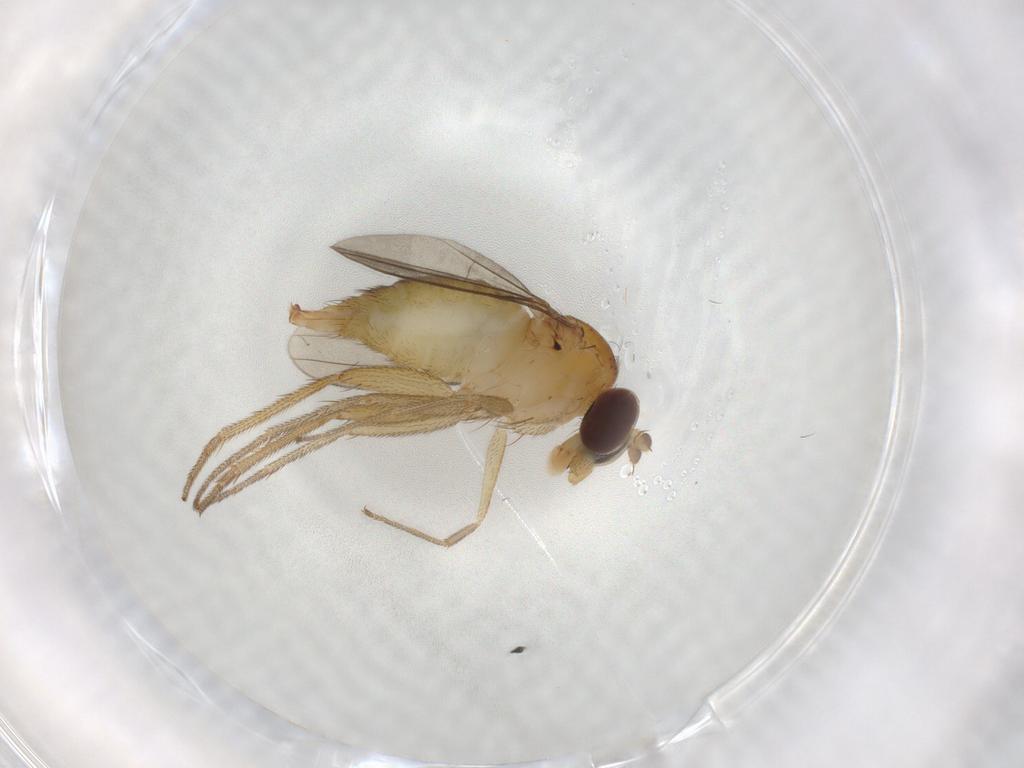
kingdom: Animalia
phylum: Arthropoda
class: Insecta
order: Diptera
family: Dolichopodidae
